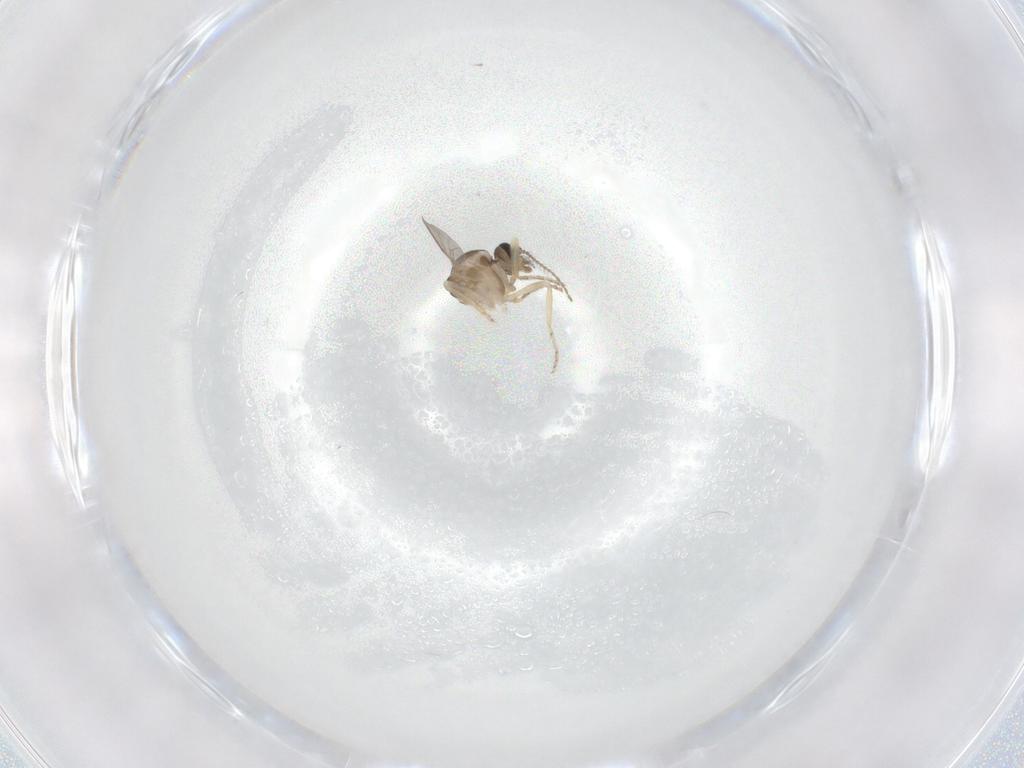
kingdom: Animalia
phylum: Arthropoda
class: Insecta
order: Diptera
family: Ceratopogonidae
